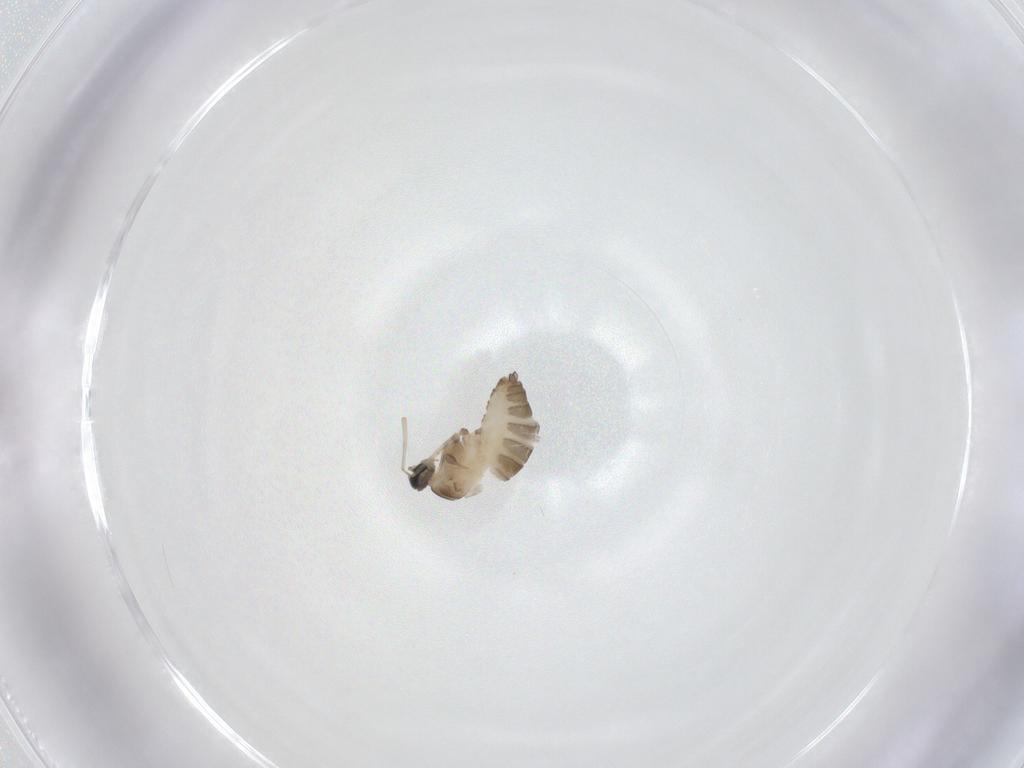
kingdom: Animalia
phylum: Arthropoda
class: Insecta
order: Diptera
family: Cecidomyiidae
